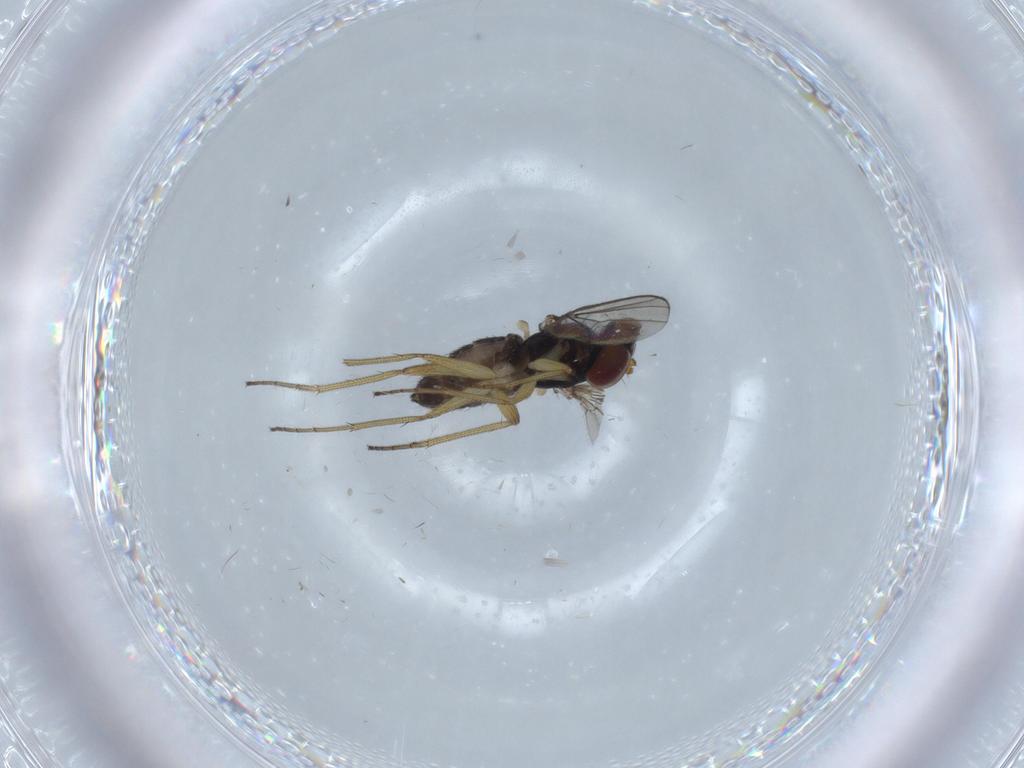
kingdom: Animalia
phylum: Arthropoda
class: Insecta
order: Diptera
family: Dolichopodidae
